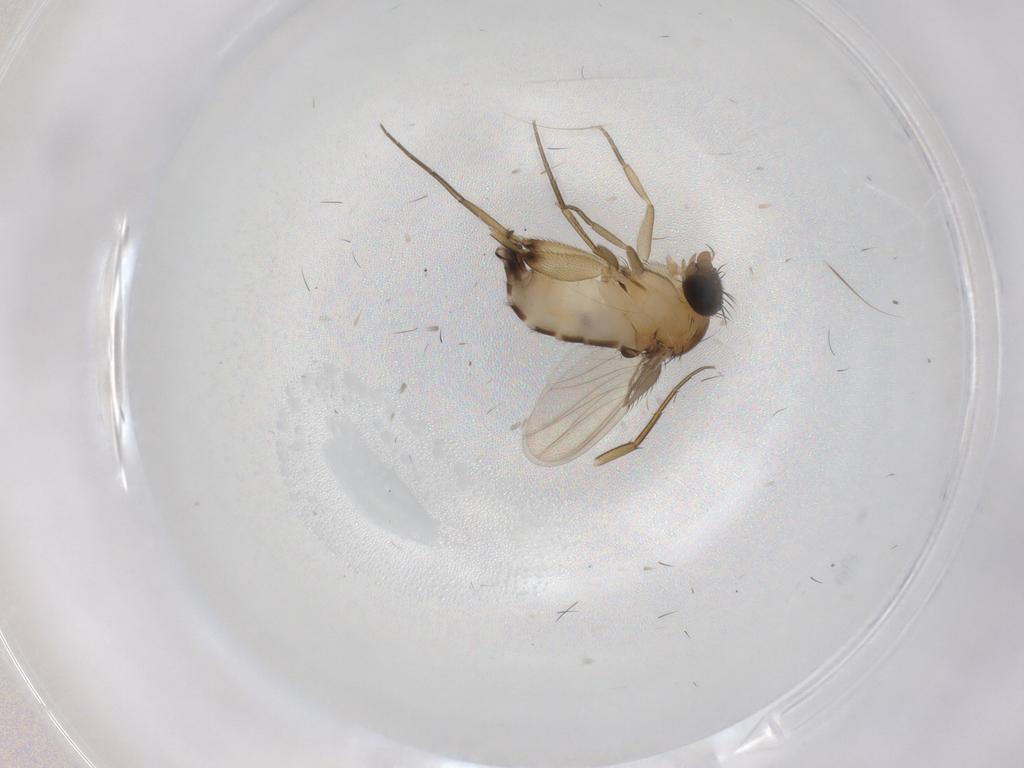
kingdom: Animalia
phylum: Arthropoda
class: Insecta
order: Diptera
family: Phoridae
